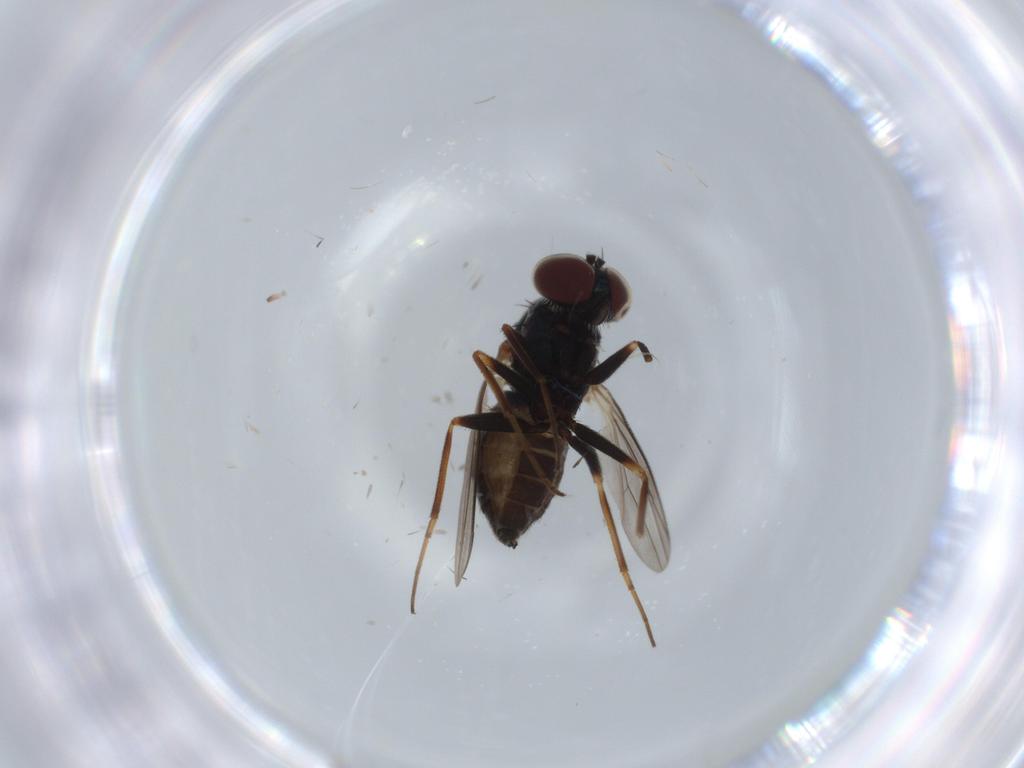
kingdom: Animalia
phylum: Arthropoda
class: Insecta
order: Diptera
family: Dolichopodidae
